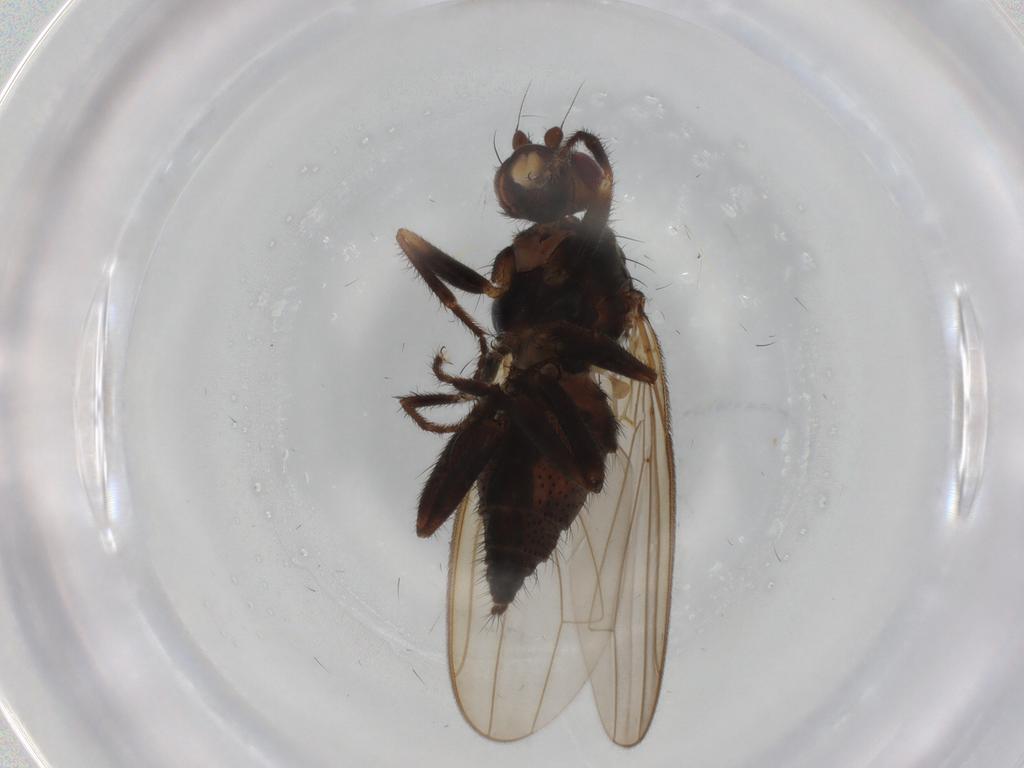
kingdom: Animalia
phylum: Arthropoda
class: Insecta
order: Diptera
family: Sphaeroceridae
